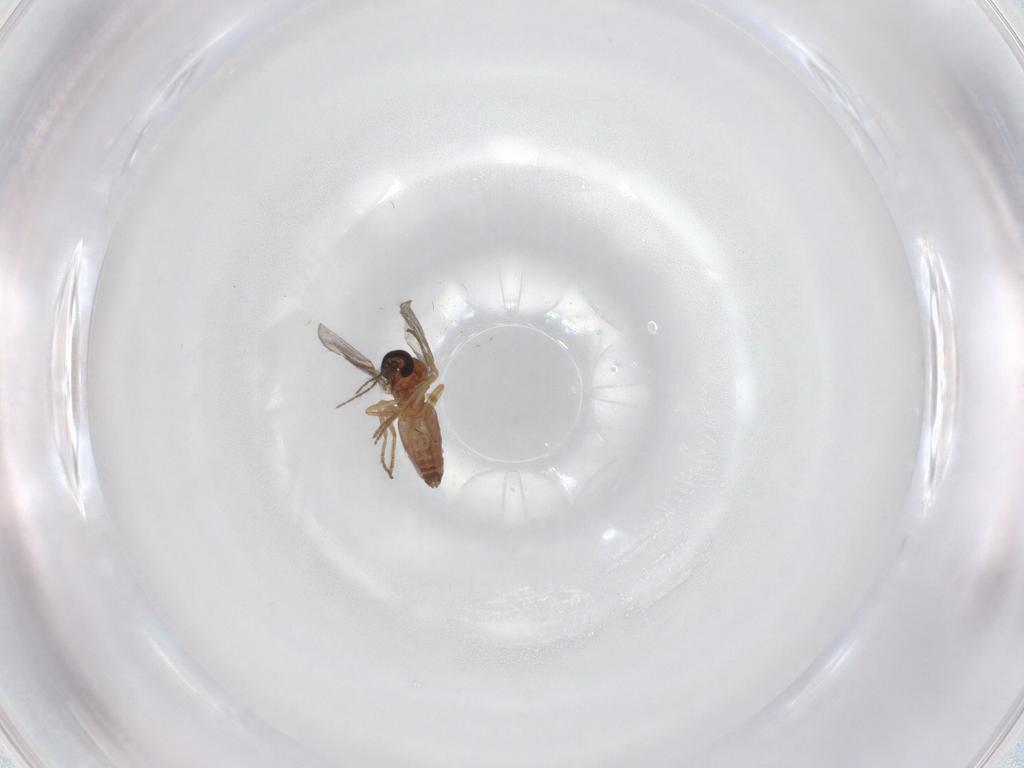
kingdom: Animalia
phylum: Arthropoda
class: Insecta
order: Diptera
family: Ceratopogonidae
